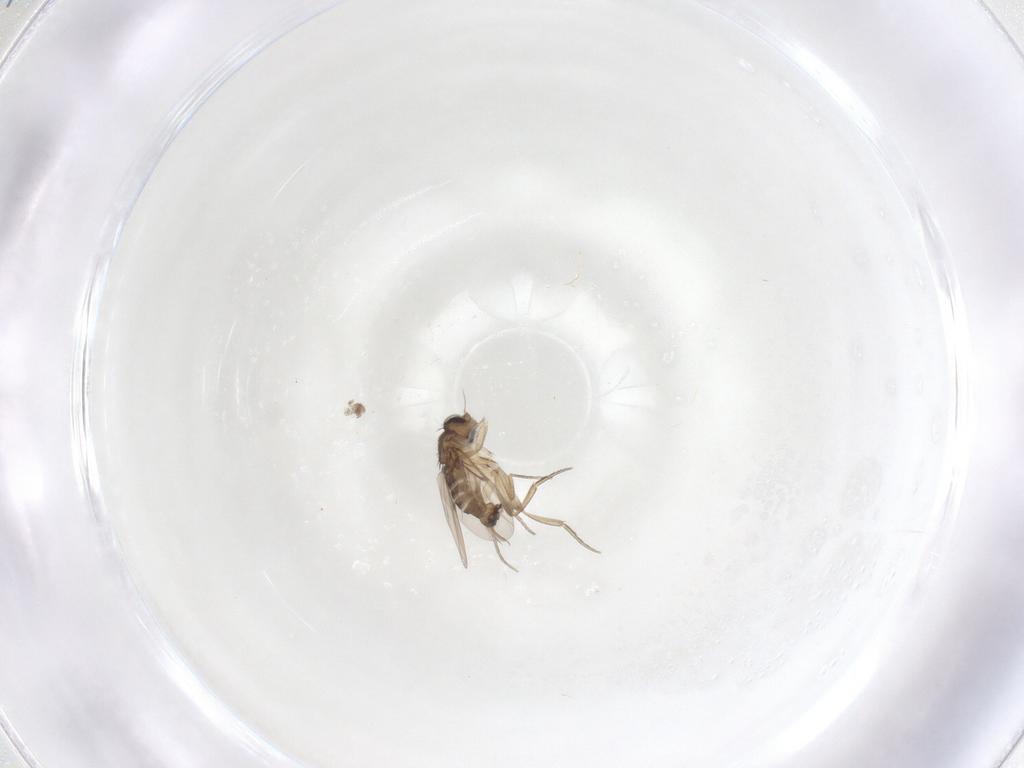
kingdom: Animalia
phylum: Arthropoda
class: Insecta
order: Diptera
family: Phoridae
